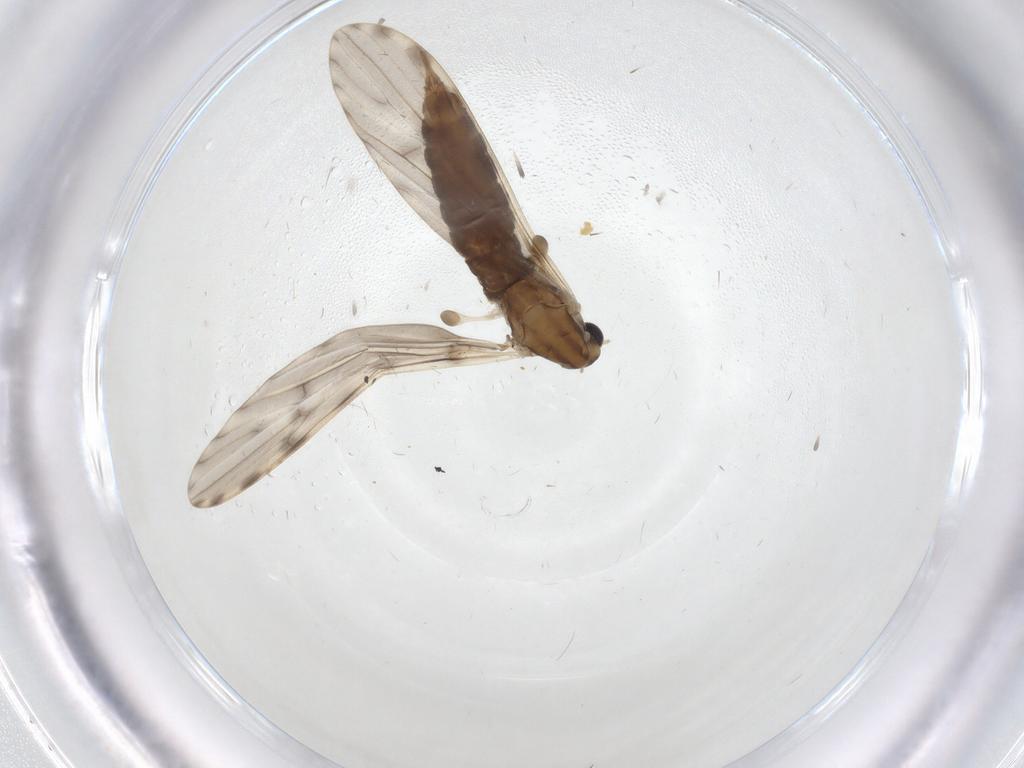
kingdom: Animalia
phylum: Arthropoda
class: Insecta
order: Diptera
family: Limoniidae
